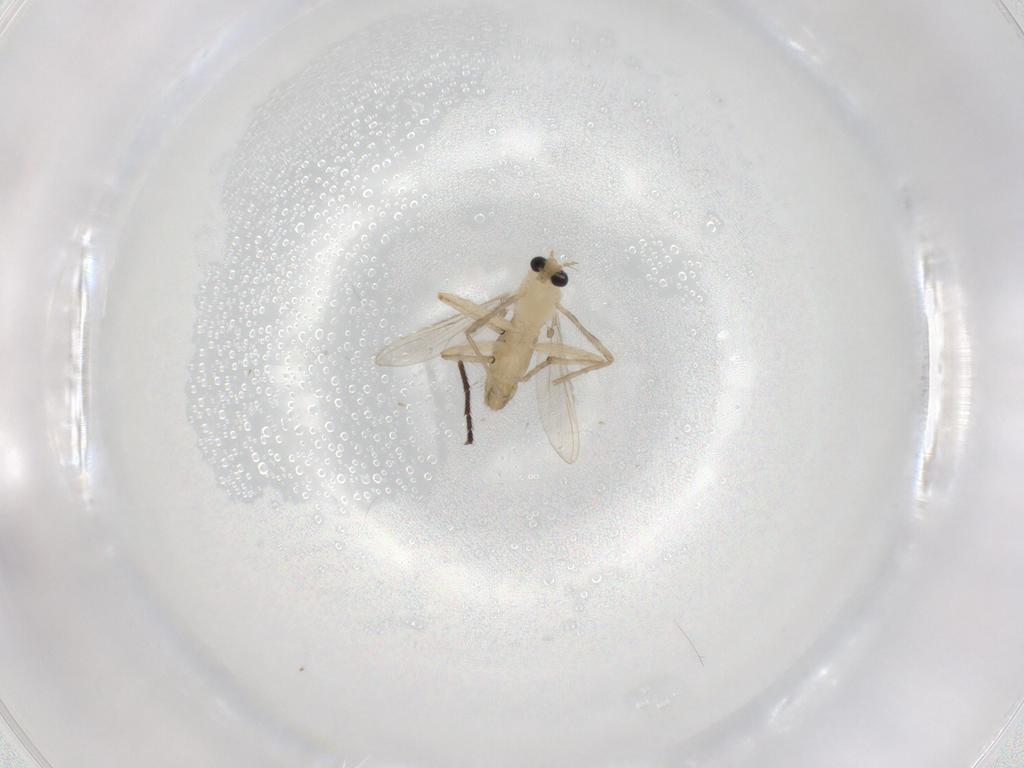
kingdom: Animalia
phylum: Arthropoda
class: Insecta
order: Diptera
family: Chironomidae
